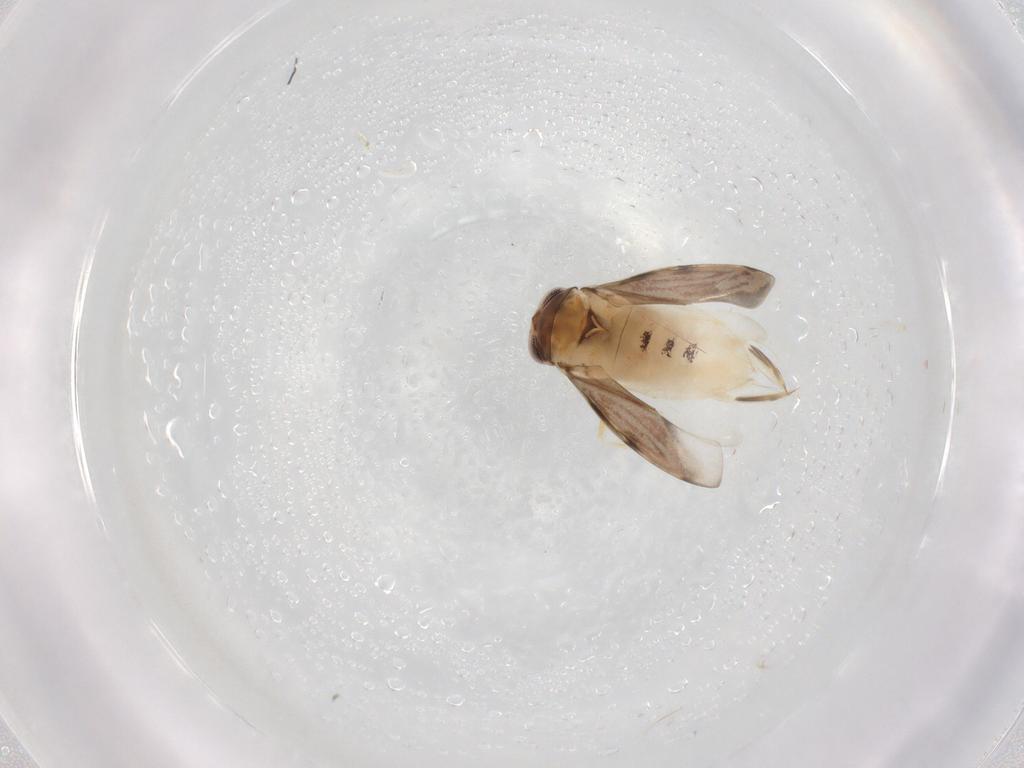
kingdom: Animalia
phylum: Arthropoda
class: Insecta
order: Hemiptera
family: Corixidae
